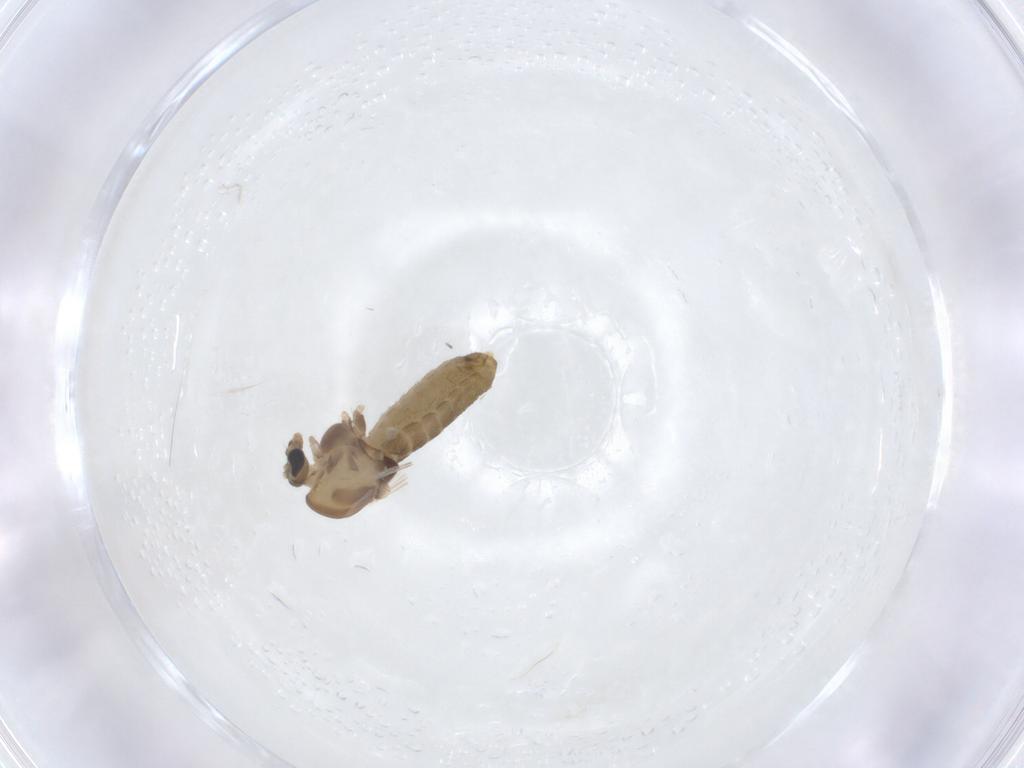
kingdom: Animalia
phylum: Arthropoda
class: Insecta
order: Diptera
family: Chironomidae
